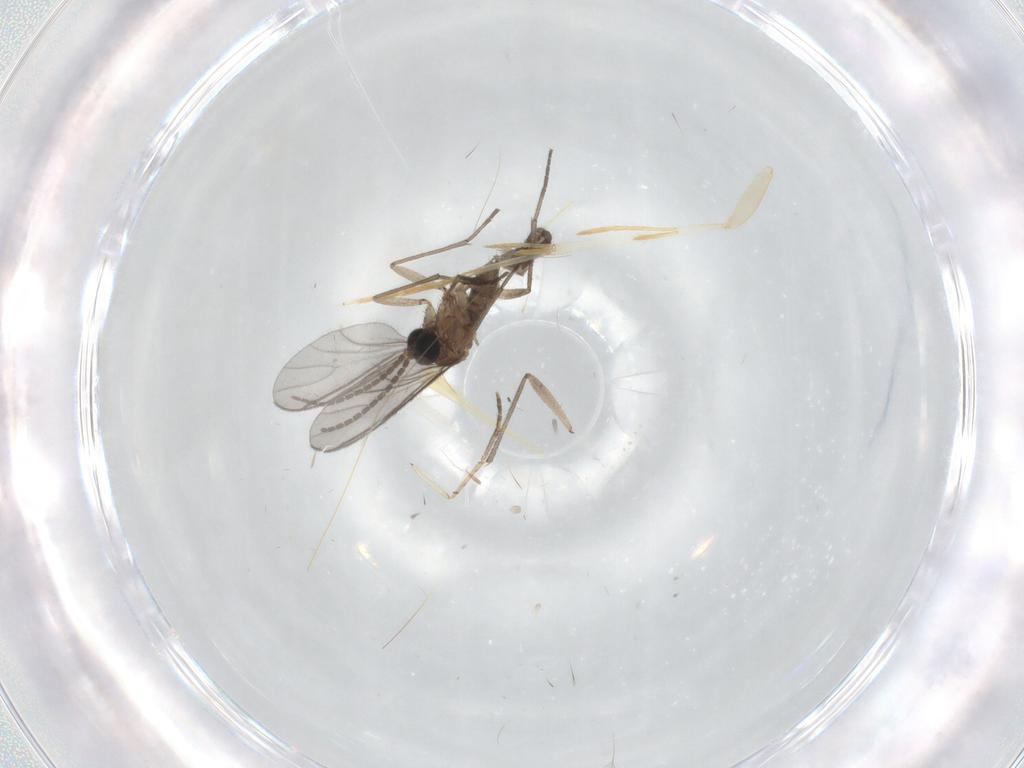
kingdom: Animalia
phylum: Arthropoda
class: Insecta
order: Diptera
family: Sciaridae
